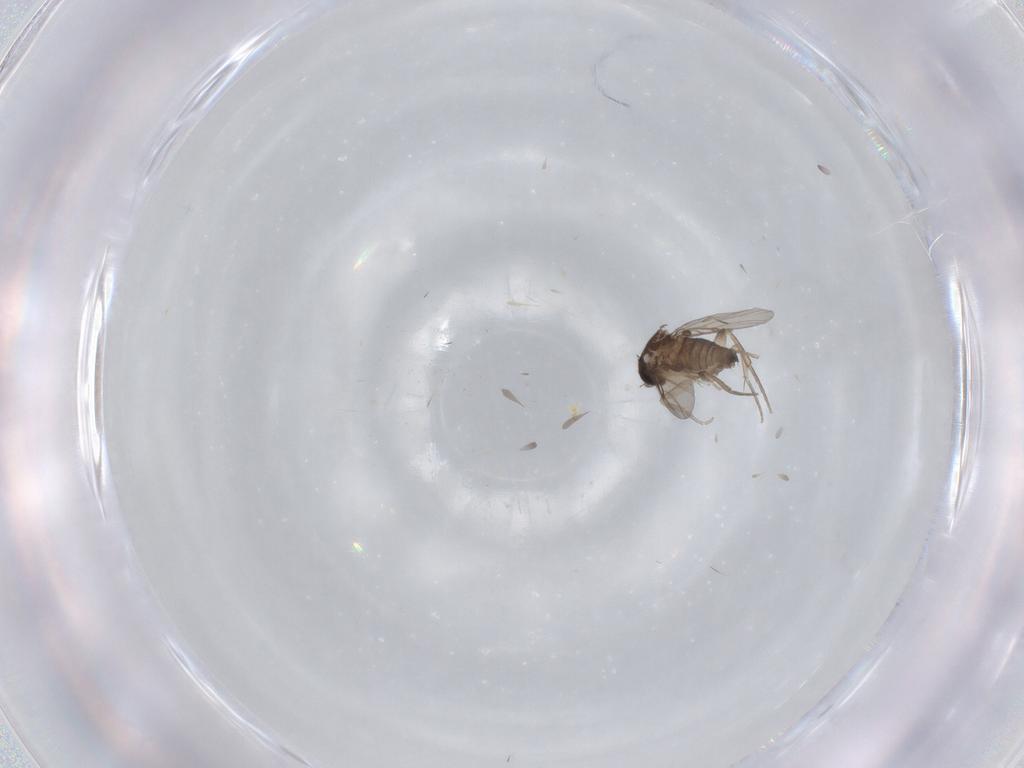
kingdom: Animalia
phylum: Arthropoda
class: Insecta
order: Diptera
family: Phoridae
